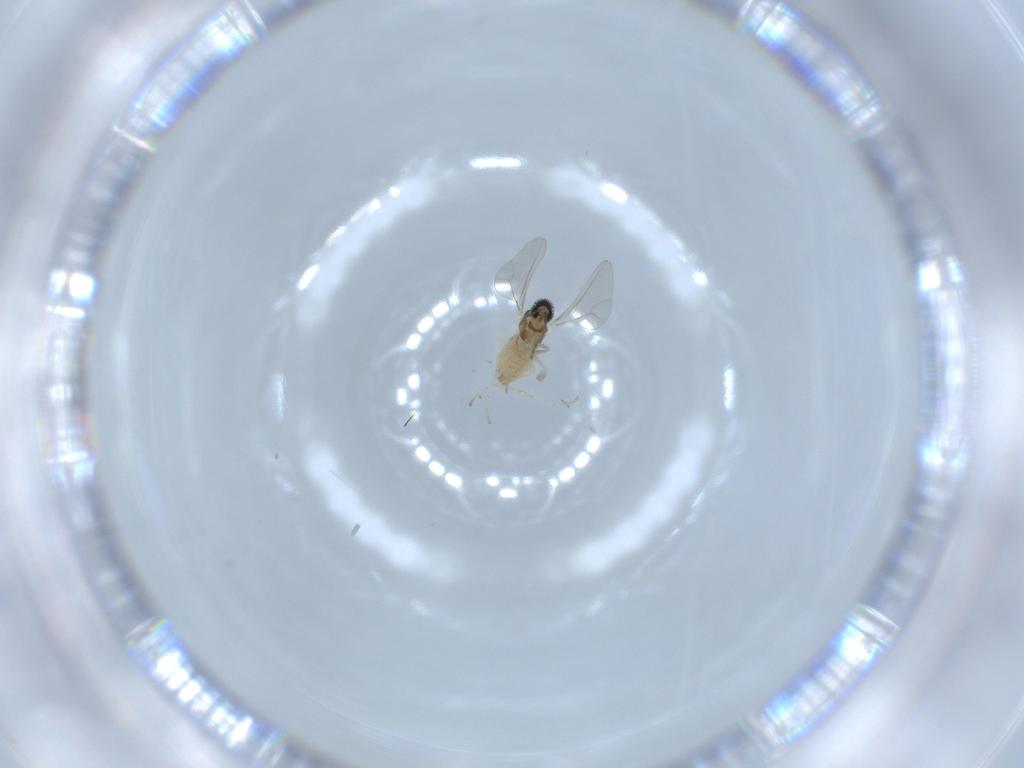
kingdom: Animalia
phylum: Arthropoda
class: Insecta
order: Diptera
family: Cecidomyiidae
